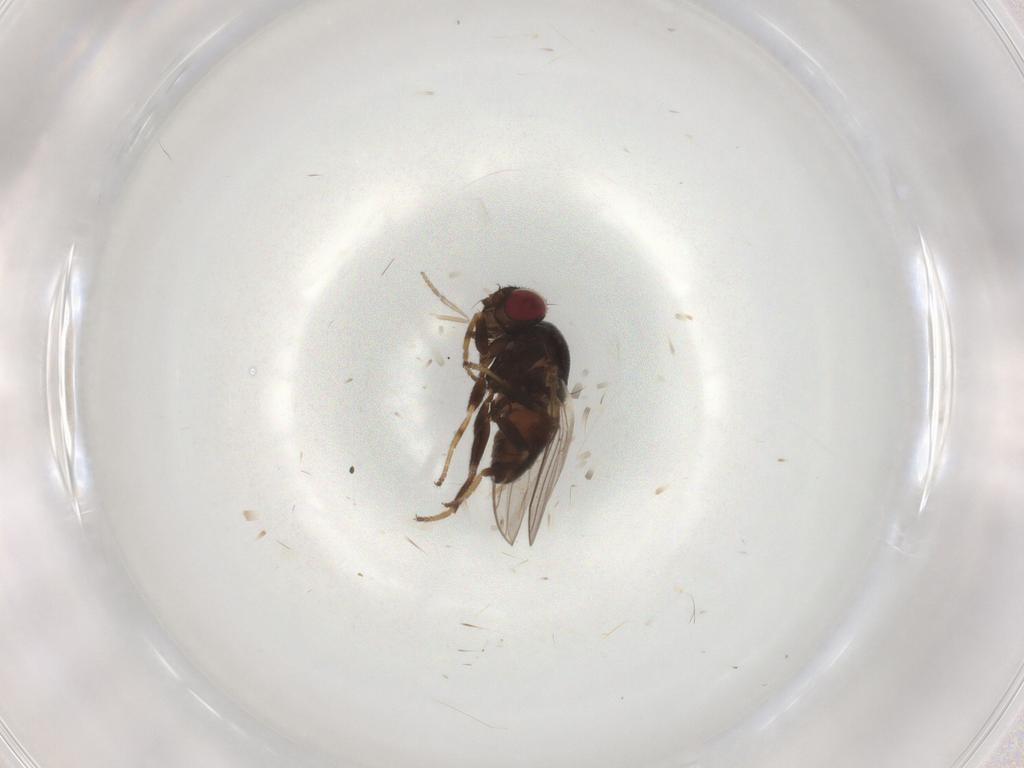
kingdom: Animalia
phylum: Arthropoda
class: Insecta
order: Diptera
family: Chloropidae
